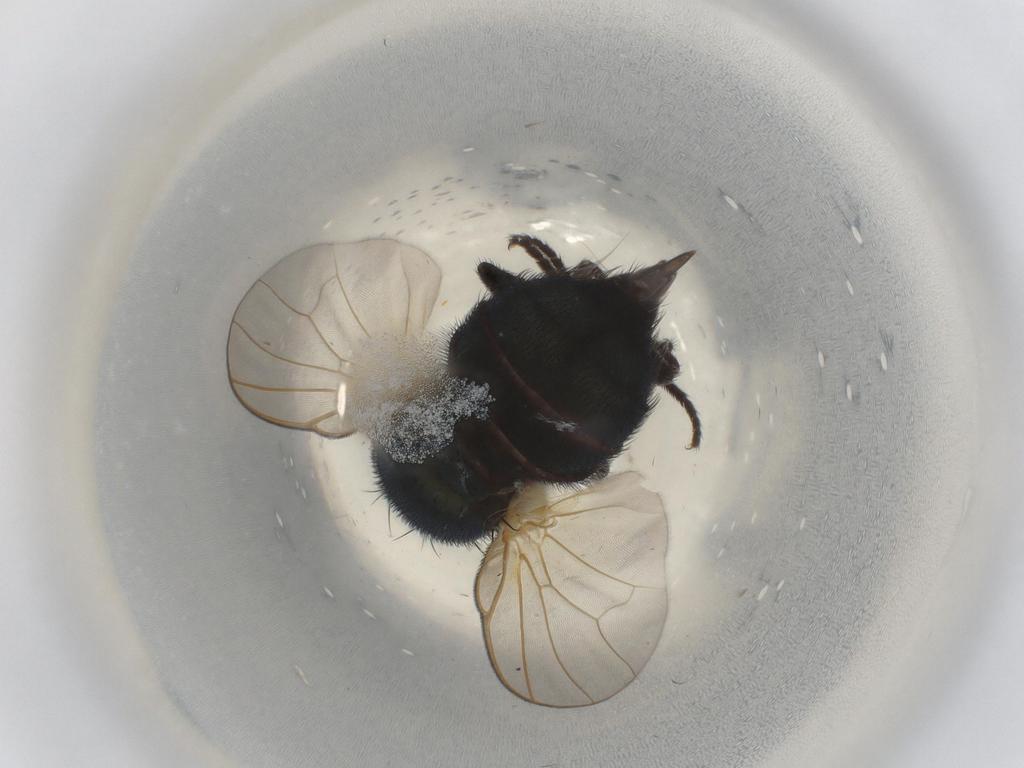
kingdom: Animalia
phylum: Arthropoda
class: Insecta
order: Diptera
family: Lonchaeidae
